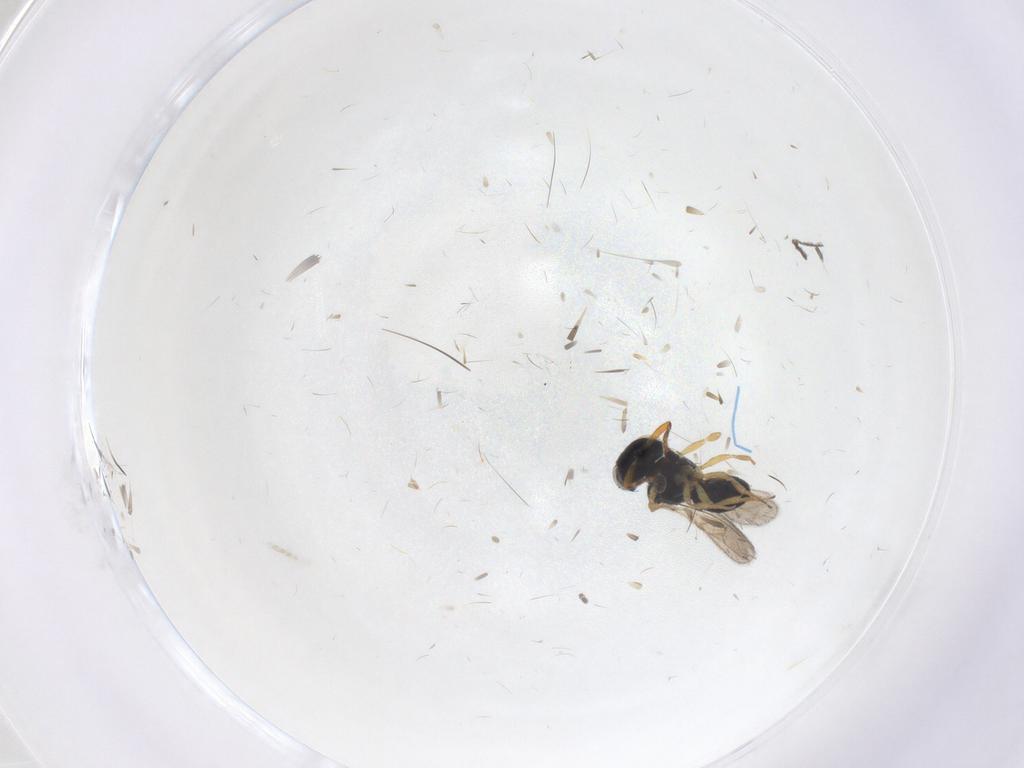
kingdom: Animalia
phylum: Arthropoda
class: Insecta
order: Hymenoptera
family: Scelionidae
